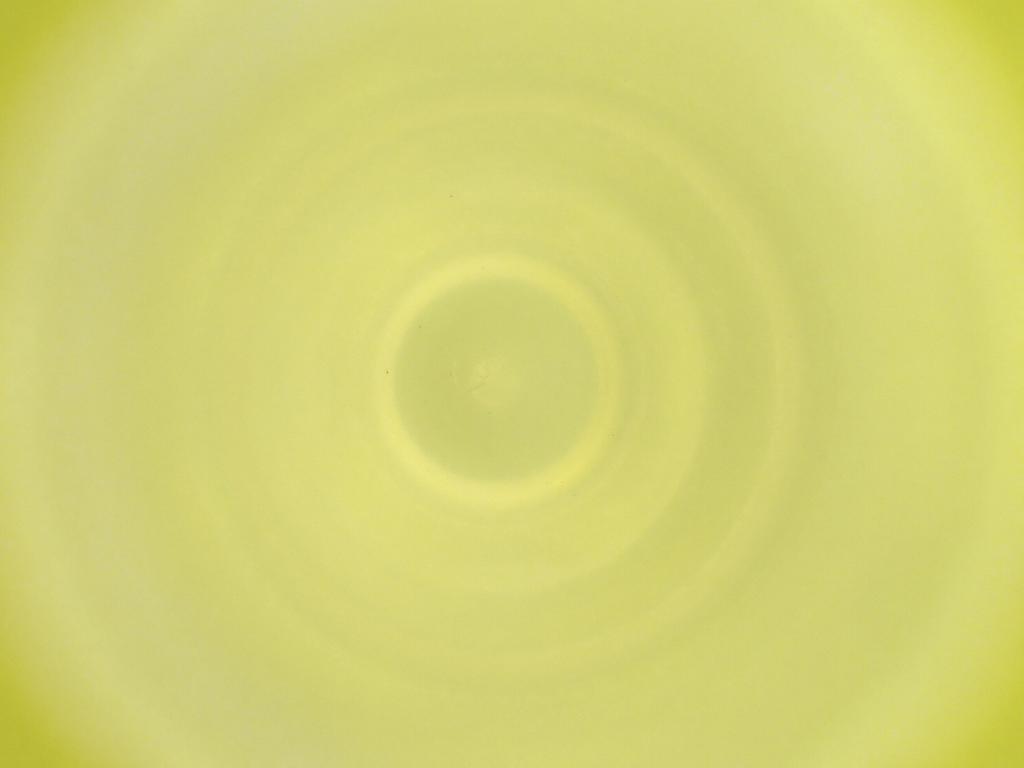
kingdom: Animalia
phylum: Arthropoda
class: Insecta
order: Diptera
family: Cecidomyiidae
